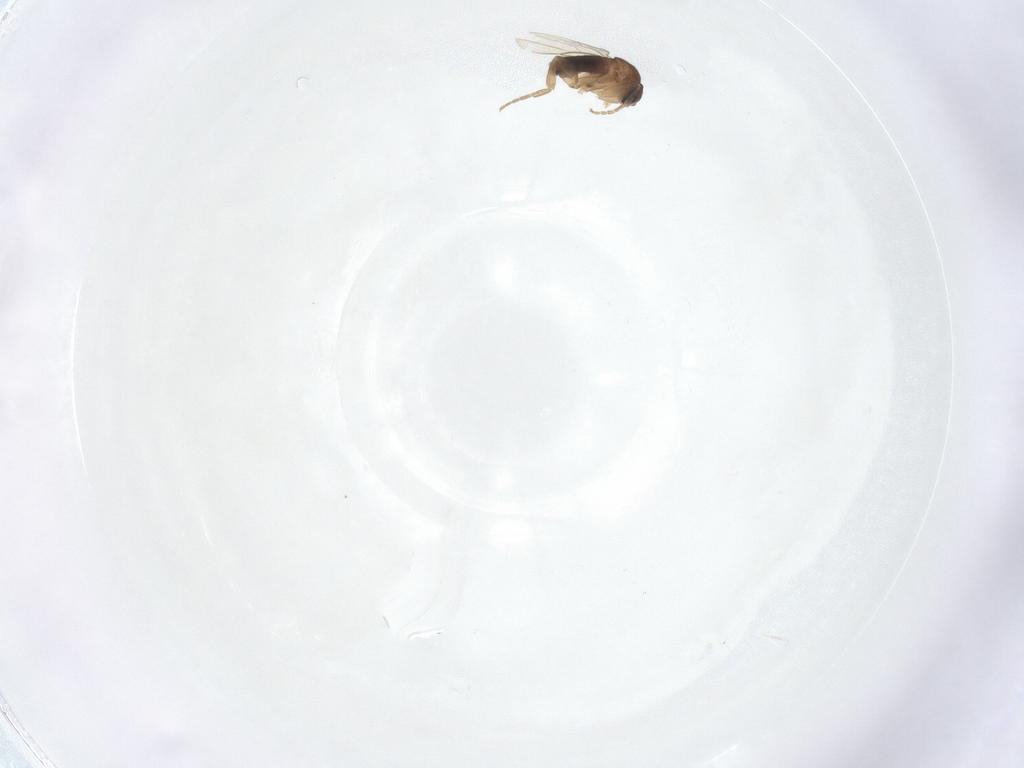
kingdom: Animalia
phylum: Arthropoda
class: Insecta
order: Diptera
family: Phoridae
